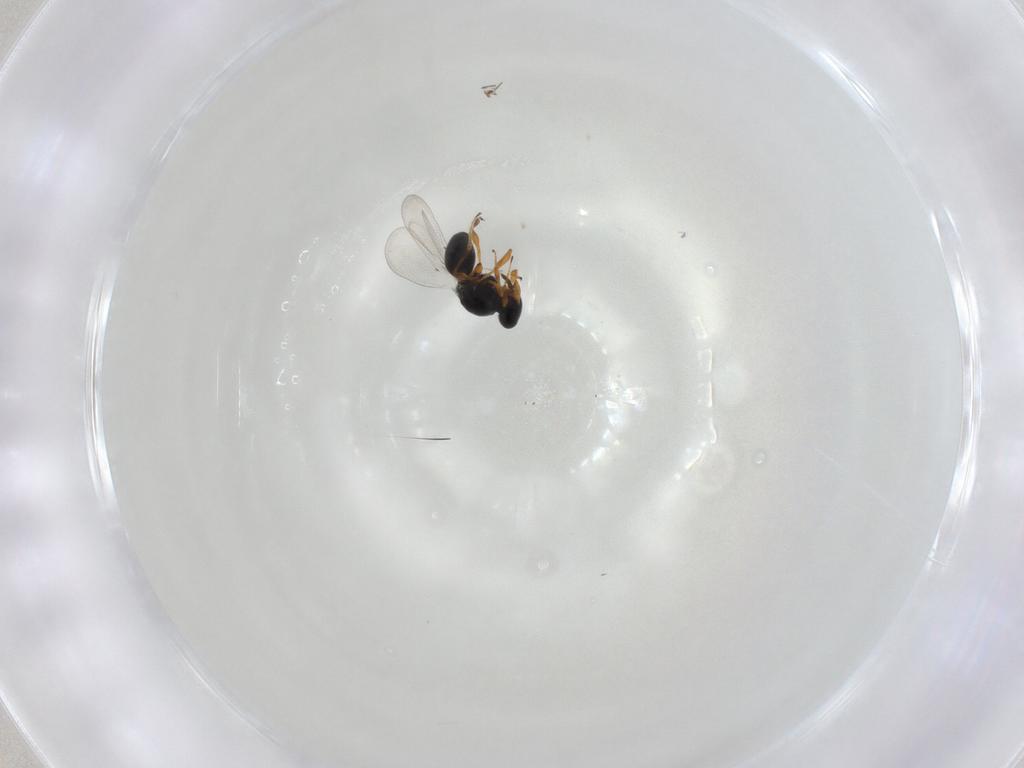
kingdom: Animalia
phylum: Arthropoda
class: Insecta
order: Hymenoptera
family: Platygastridae
